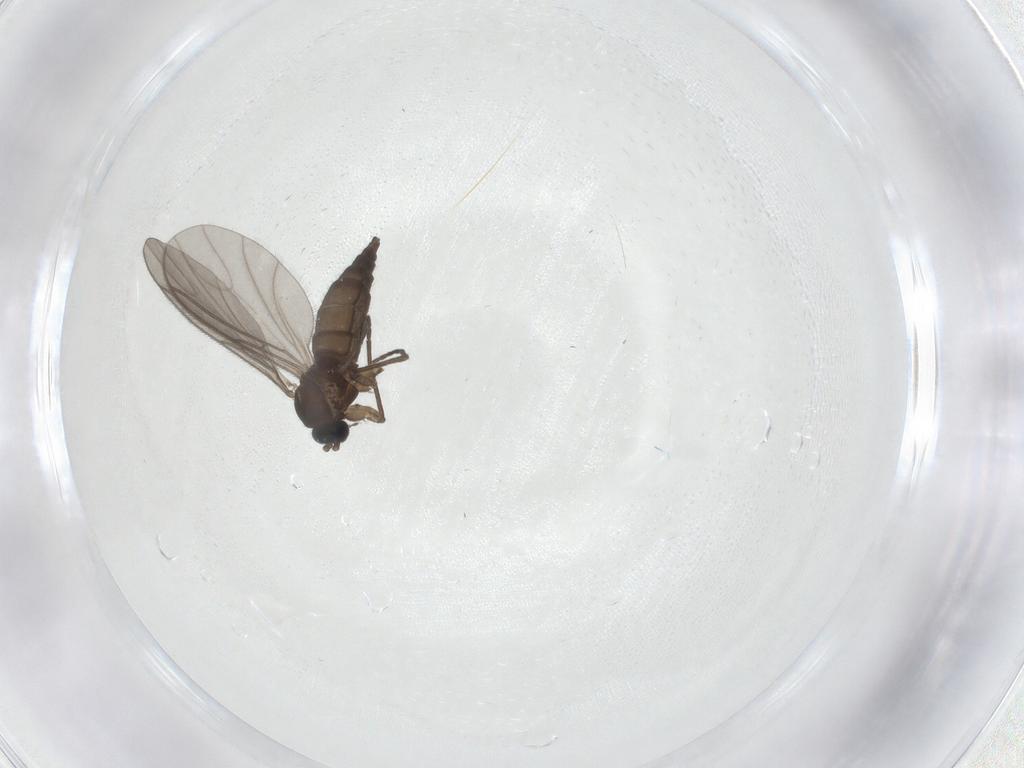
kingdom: Animalia
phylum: Arthropoda
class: Insecta
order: Diptera
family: Sciaridae
